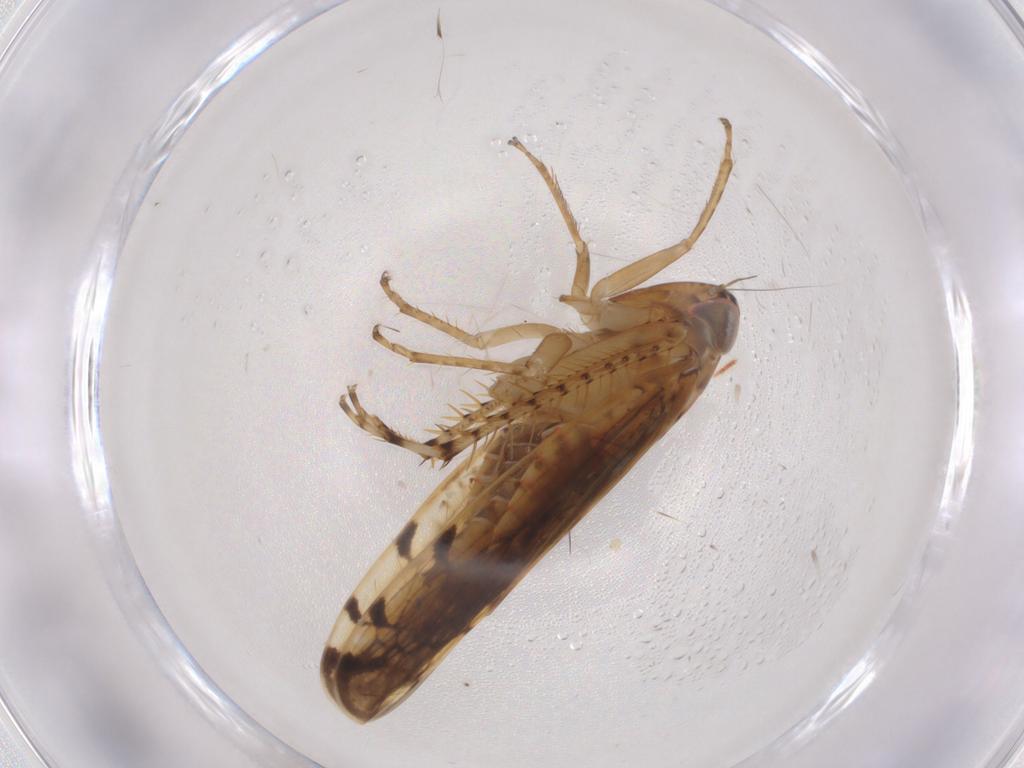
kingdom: Animalia
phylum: Arthropoda
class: Insecta
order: Hemiptera
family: Cicadellidae
